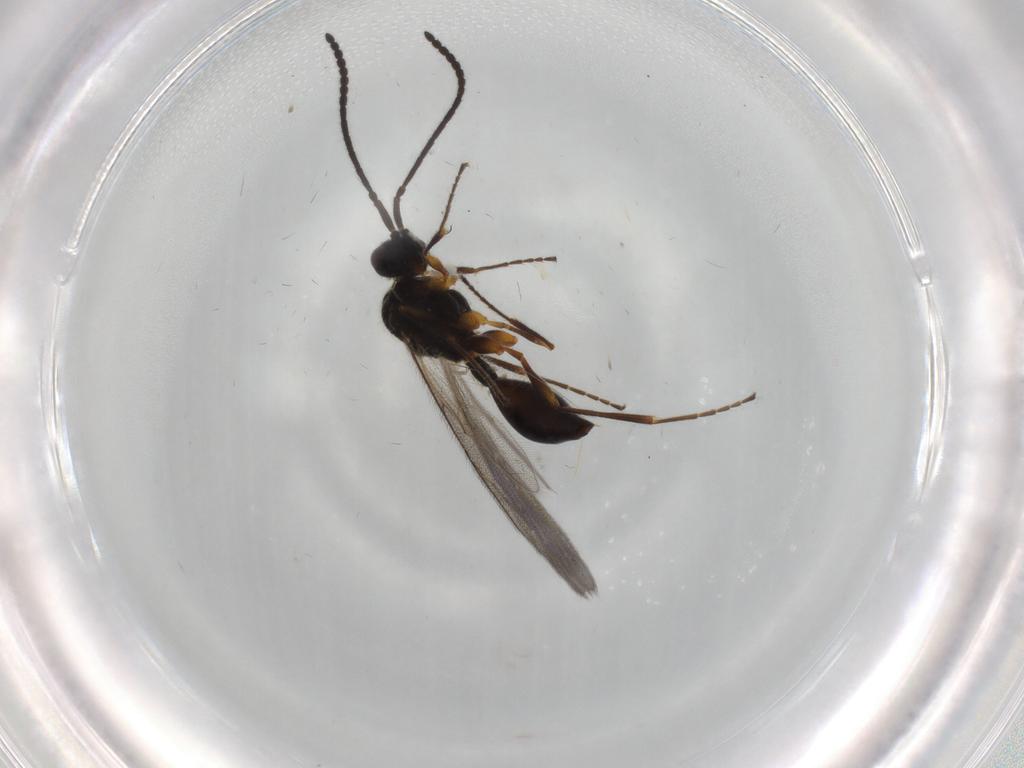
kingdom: Animalia
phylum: Arthropoda
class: Insecta
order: Hymenoptera
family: Diapriidae
